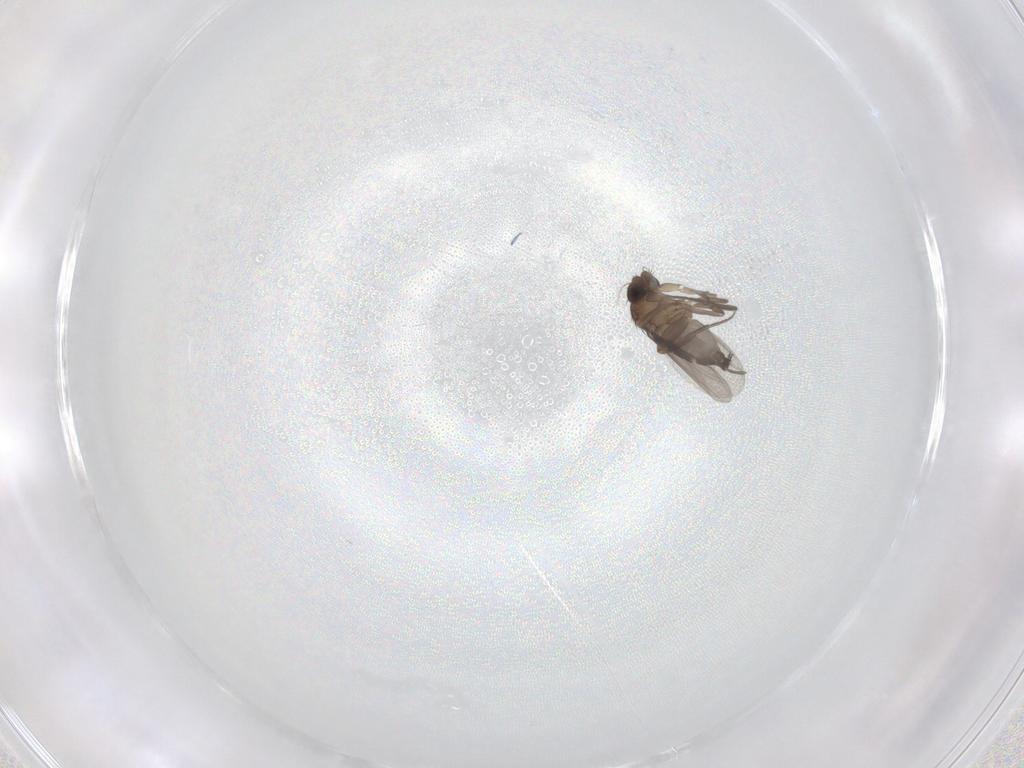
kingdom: Animalia
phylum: Arthropoda
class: Insecta
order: Diptera
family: Phoridae
